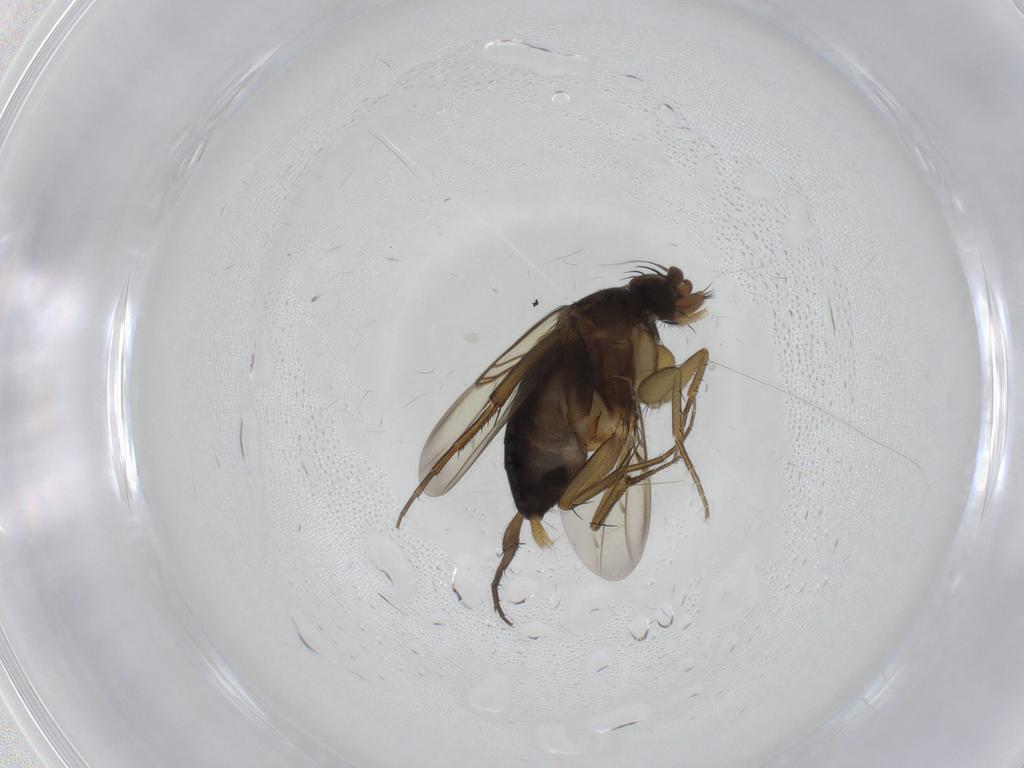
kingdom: Animalia
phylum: Arthropoda
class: Insecta
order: Diptera
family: Phoridae
